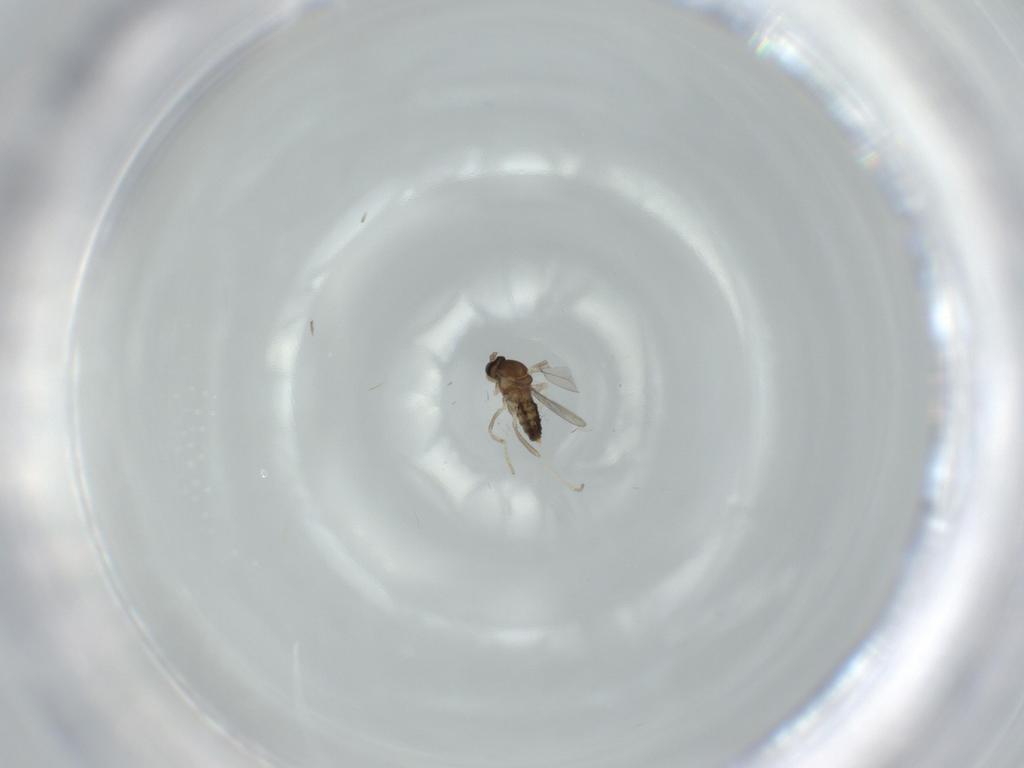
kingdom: Animalia
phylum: Arthropoda
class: Insecta
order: Diptera
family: Cecidomyiidae
